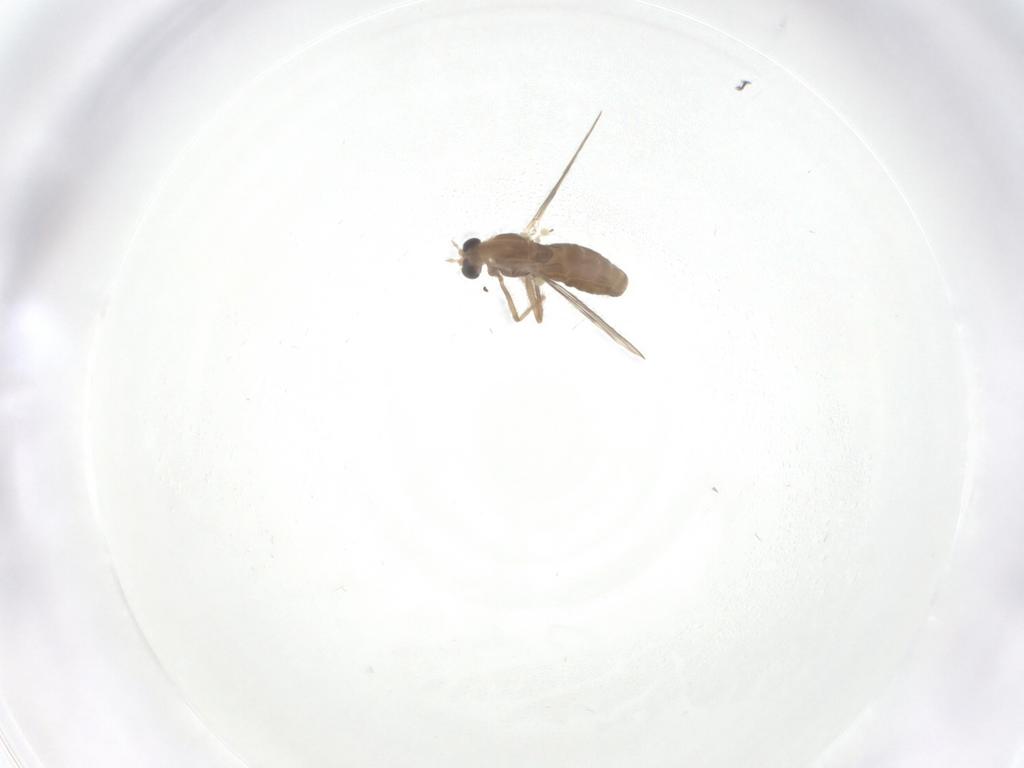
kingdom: Animalia
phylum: Arthropoda
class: Insecta
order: Diptera
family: Chironomidae
